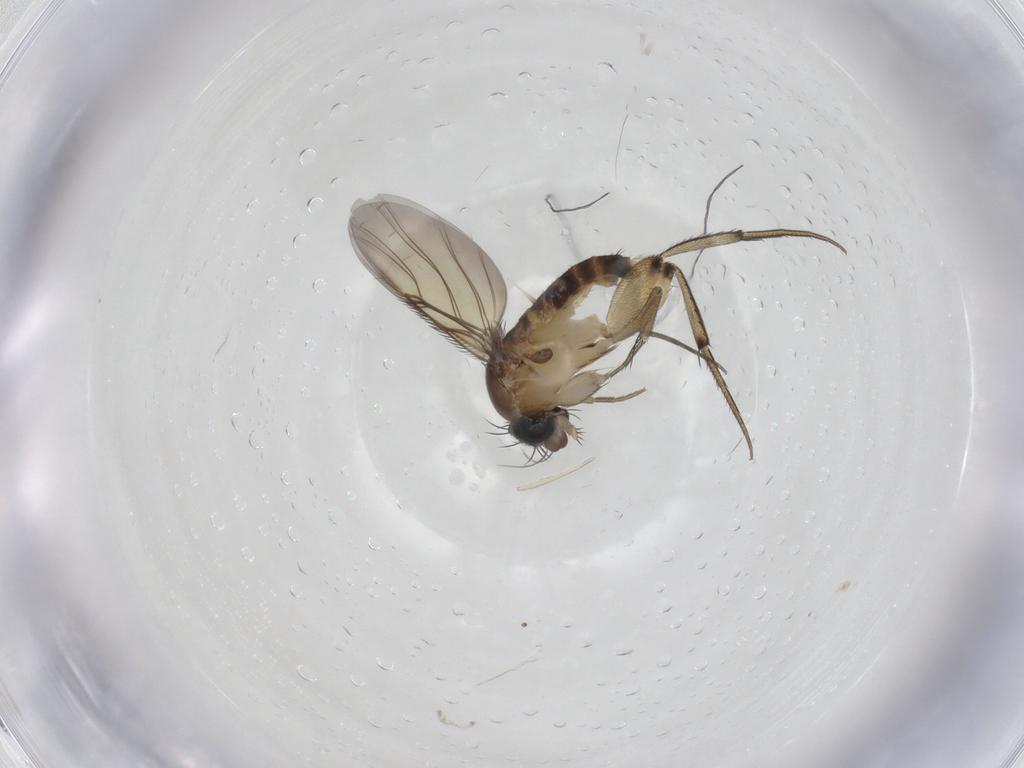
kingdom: Animalia
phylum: Arthropoda
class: Insecta
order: Diptera
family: Phoridae
